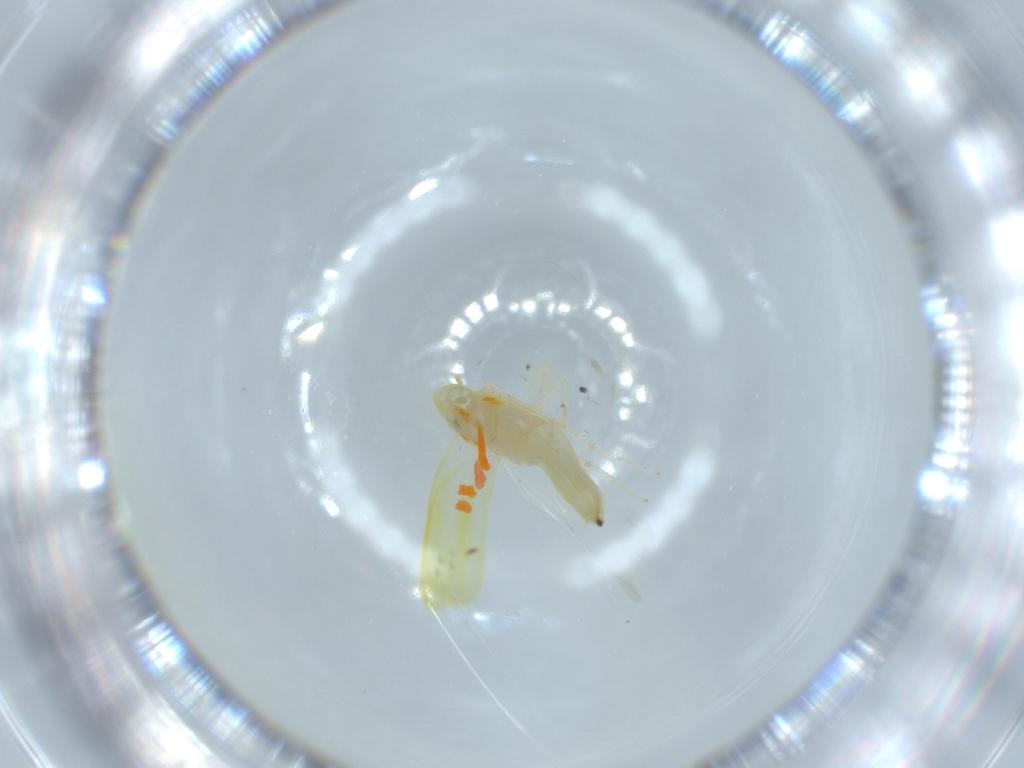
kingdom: Animalia
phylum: Arthropoda
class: Insecta
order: Hemiptera
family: Cicadellidae
